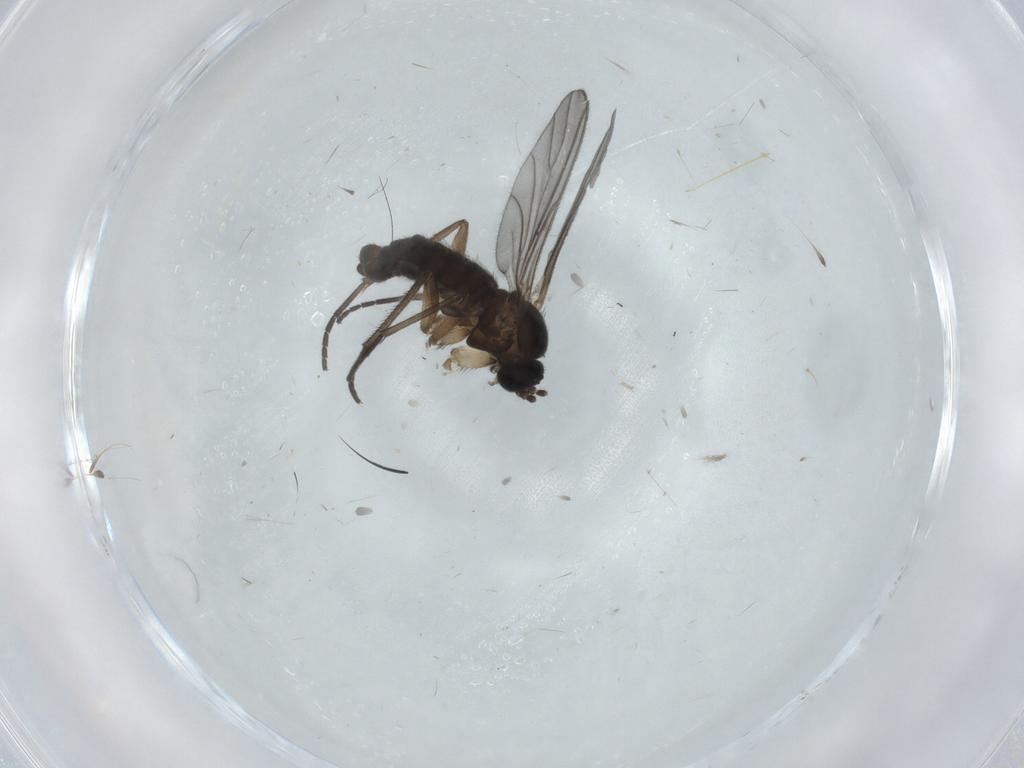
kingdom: Animalia
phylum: Arthropoda
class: Insecta
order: Diptera
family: Sciaridae
